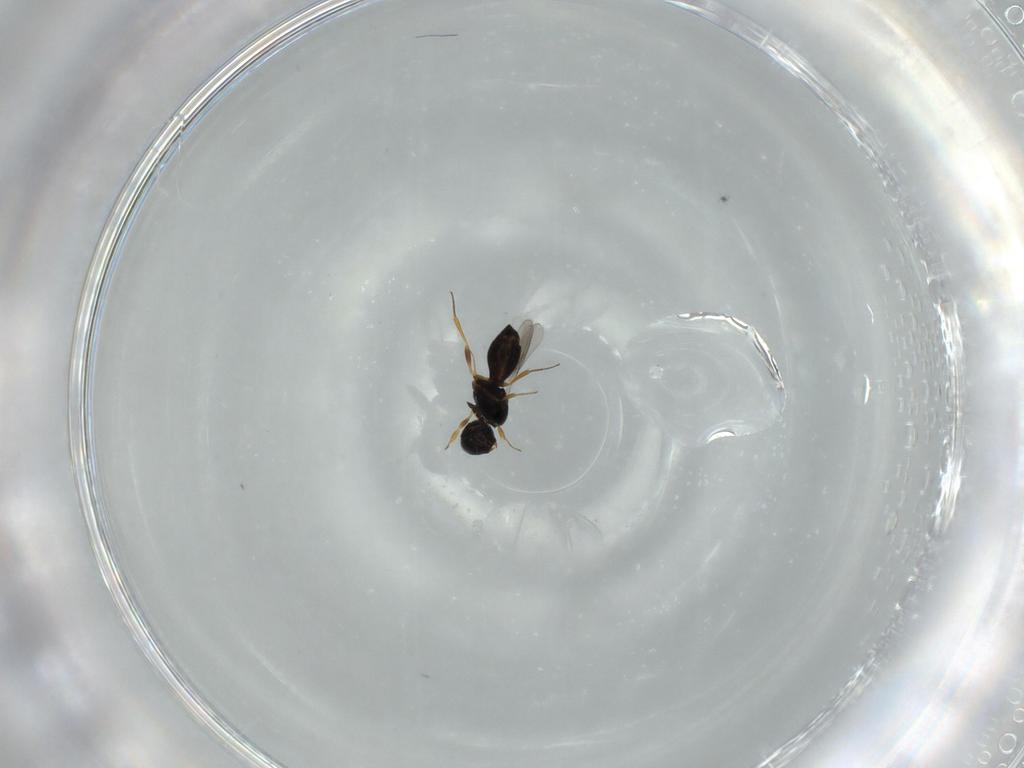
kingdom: Animalia
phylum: Arthropoda
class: Insecta
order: Hymenoptera
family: Scelionidae
